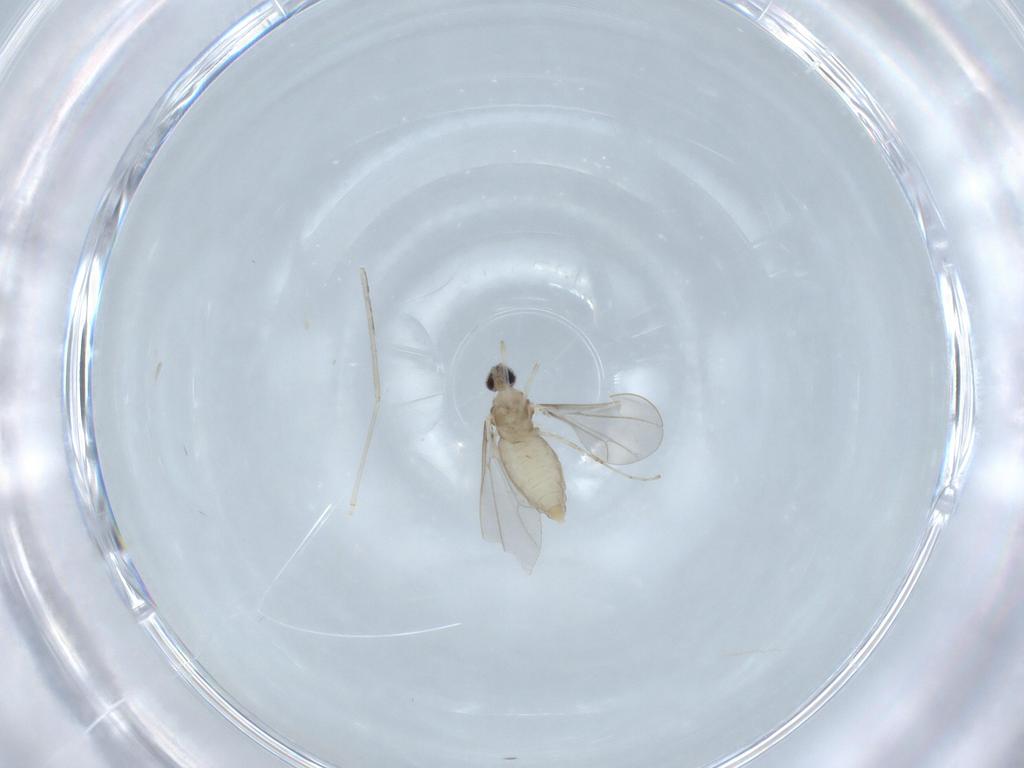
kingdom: Animalia
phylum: Arthropoda
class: Insecta
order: Diptera
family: Cecidomyiidae
